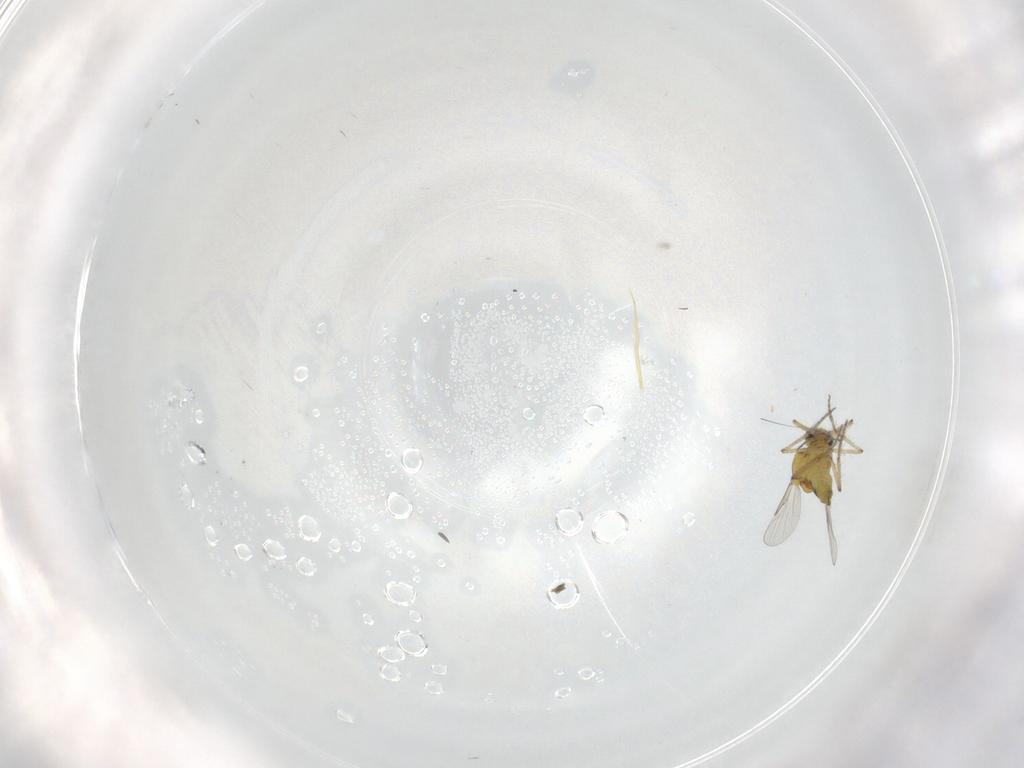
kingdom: Animalia
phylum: Arthropoda
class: Insecta
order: Diptera
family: Ceratopogonidae
